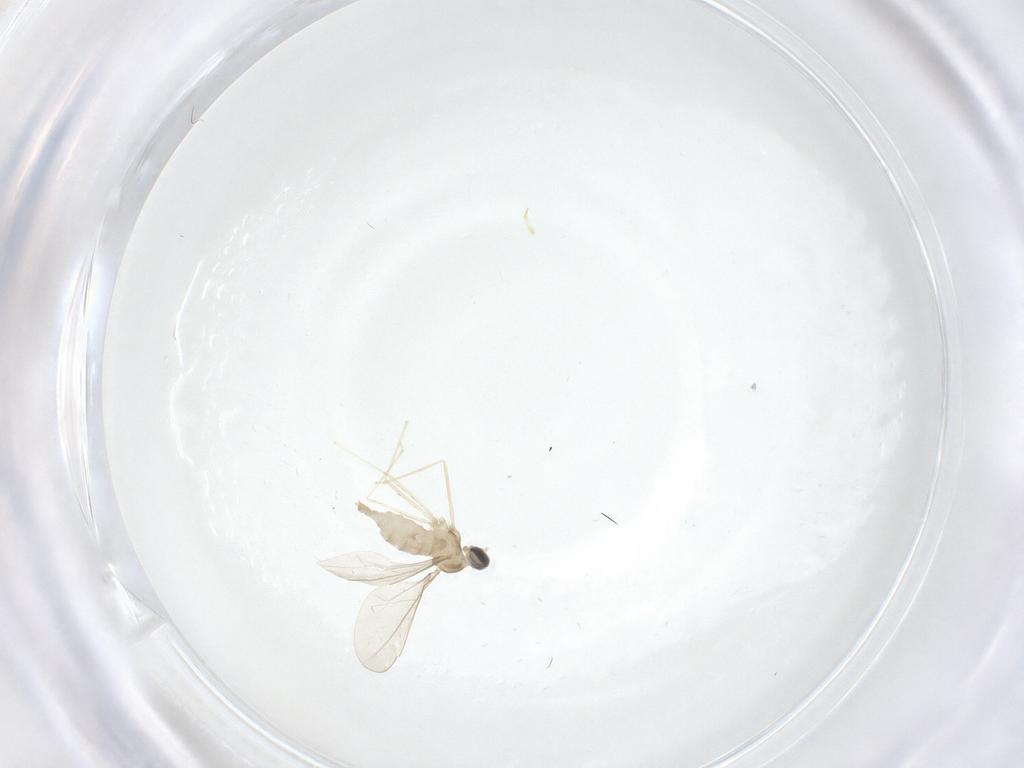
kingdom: Animalia
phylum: Arthropoda
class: Insecta
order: Diptera
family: Cecidomyiidae
